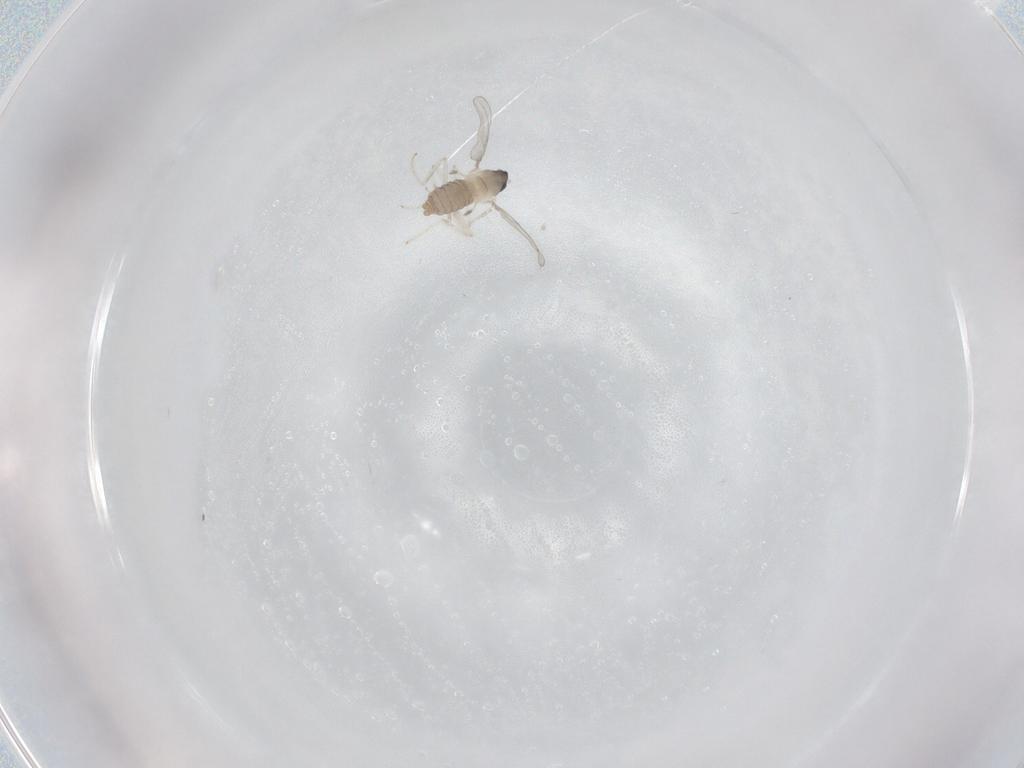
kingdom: Animalia
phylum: Arthropoda
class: Insecta
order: Diptera
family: Cecidomyiidae
